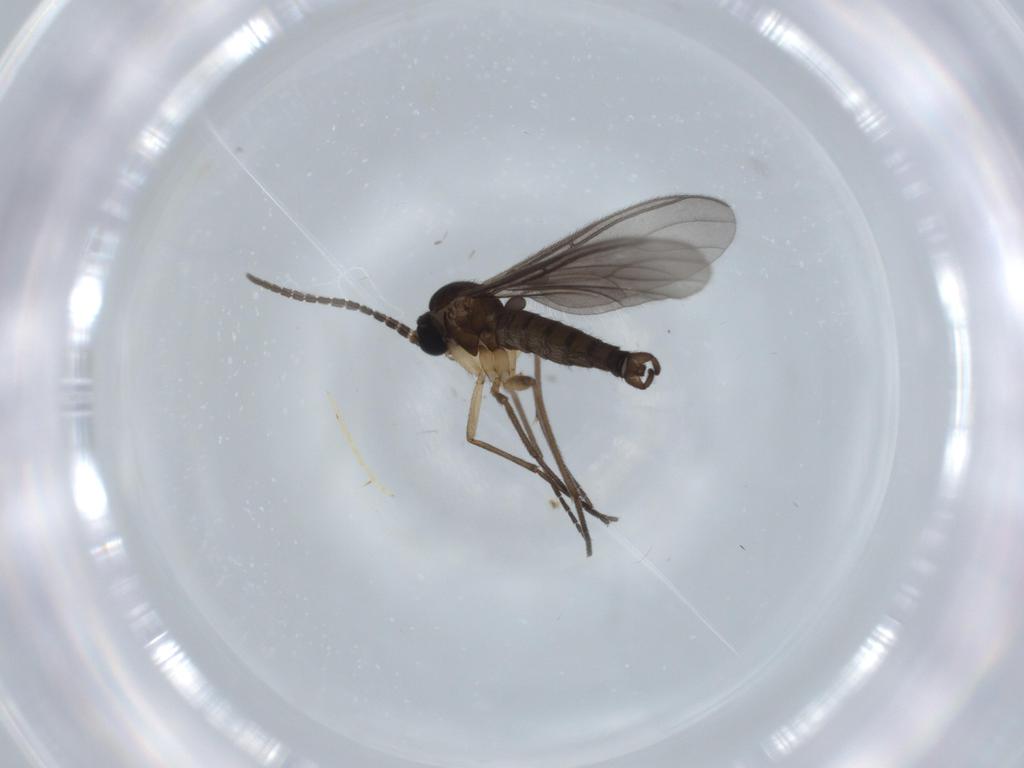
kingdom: Animalia
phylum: Arthropoda
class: Insecta
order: Diptera
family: Sciaridae
